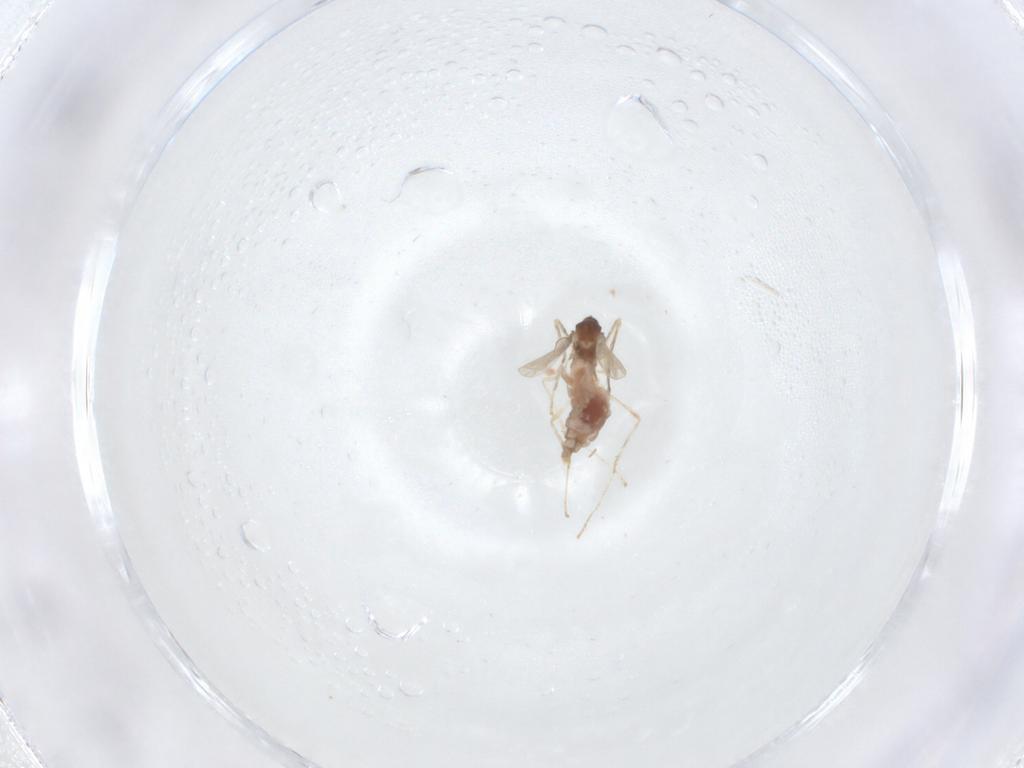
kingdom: Animalia
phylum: Arthropoda
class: Insecta
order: Diptera
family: Cecidomyiidae
